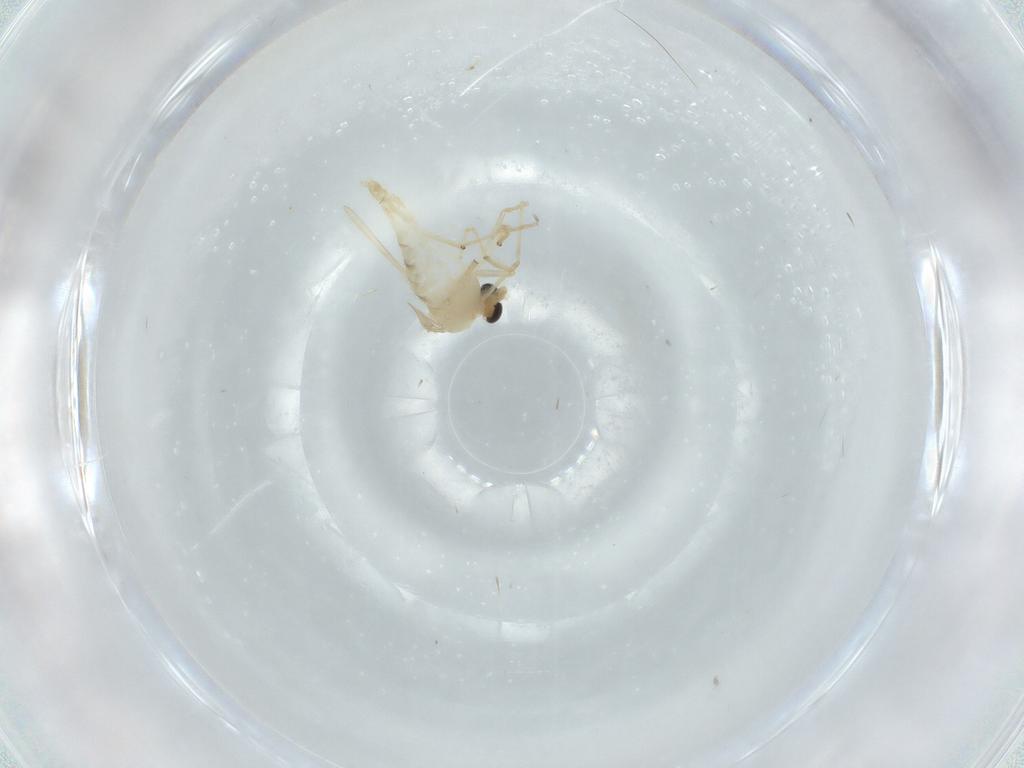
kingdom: Animalia
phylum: Arthropoda
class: Insecta
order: Diptera
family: Chironomidae
